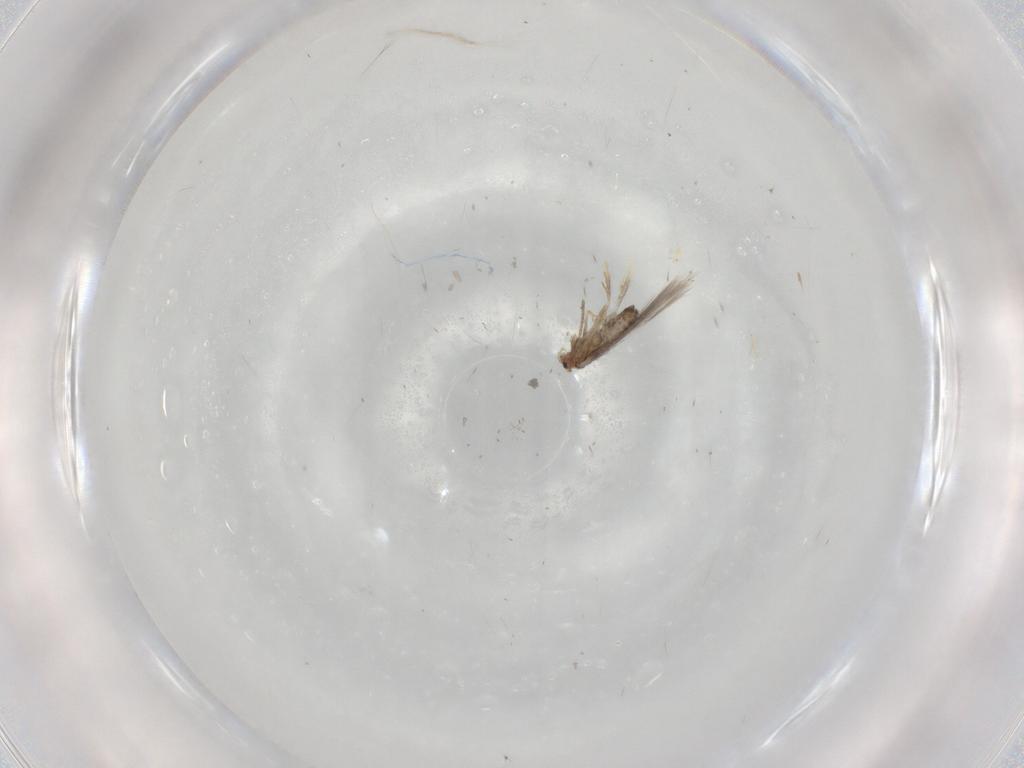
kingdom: Animalia
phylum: Arthropoda
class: Insecta
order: Lepidoptera
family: Nepticulidae
